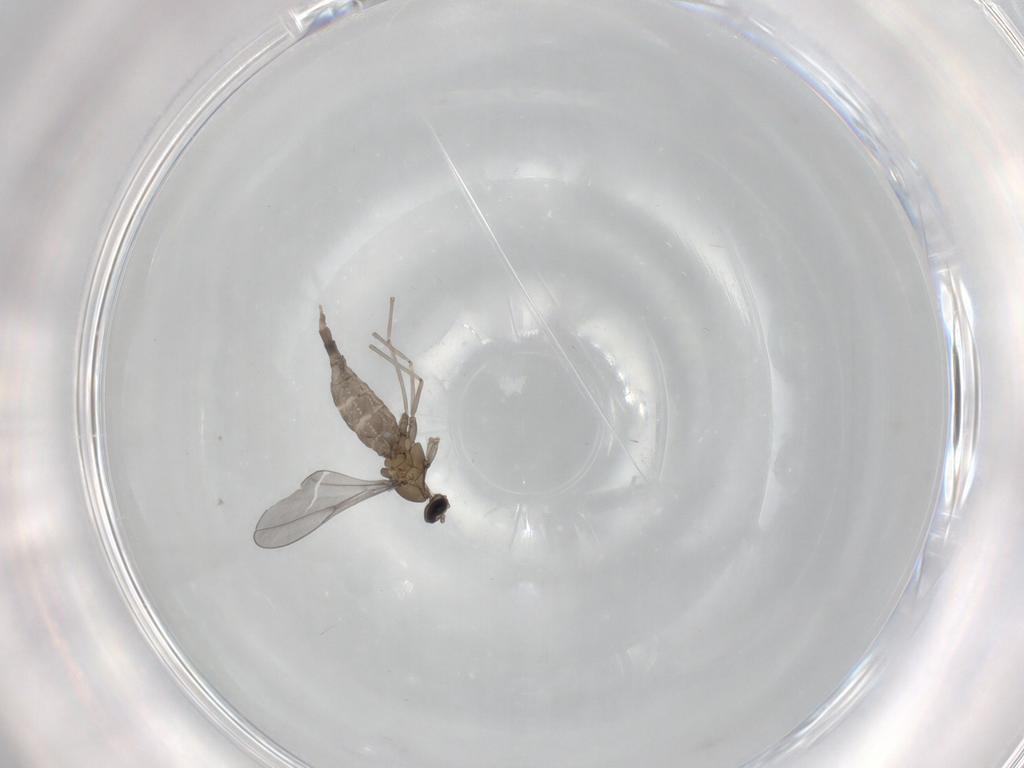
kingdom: Animalia
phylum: Arthropoda
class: Insecta
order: Diptera
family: Cecidomyiidae
